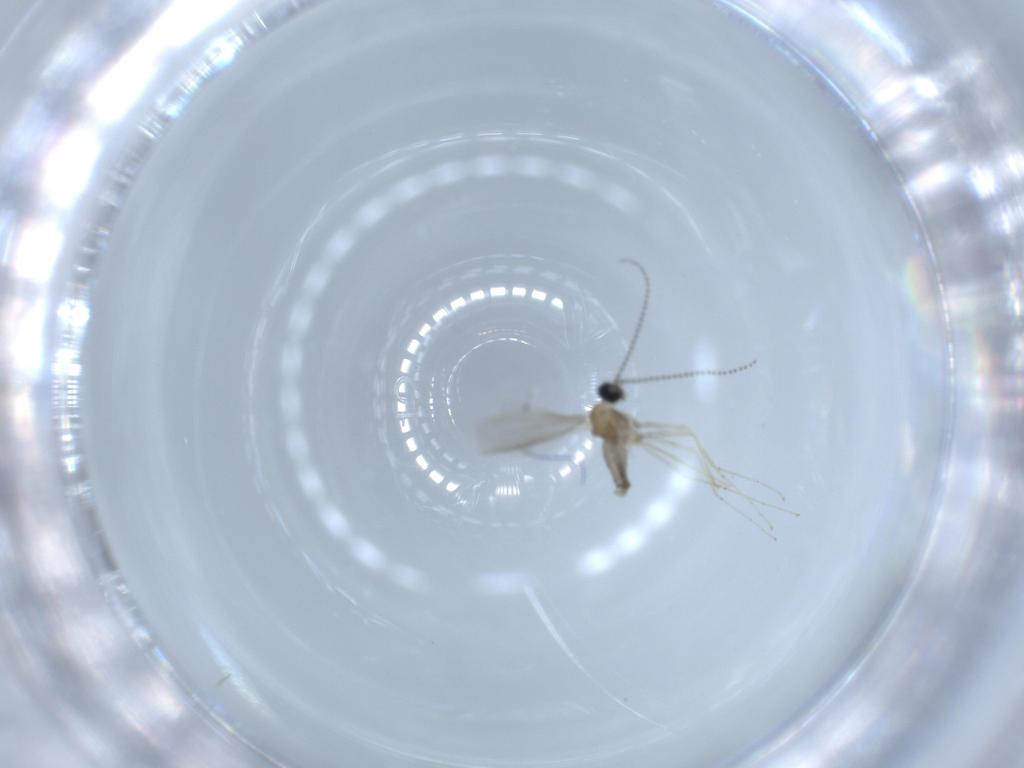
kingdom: Animalia
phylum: Arthropoda
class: Insecta
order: Diptera
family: Cecidomyiidae
